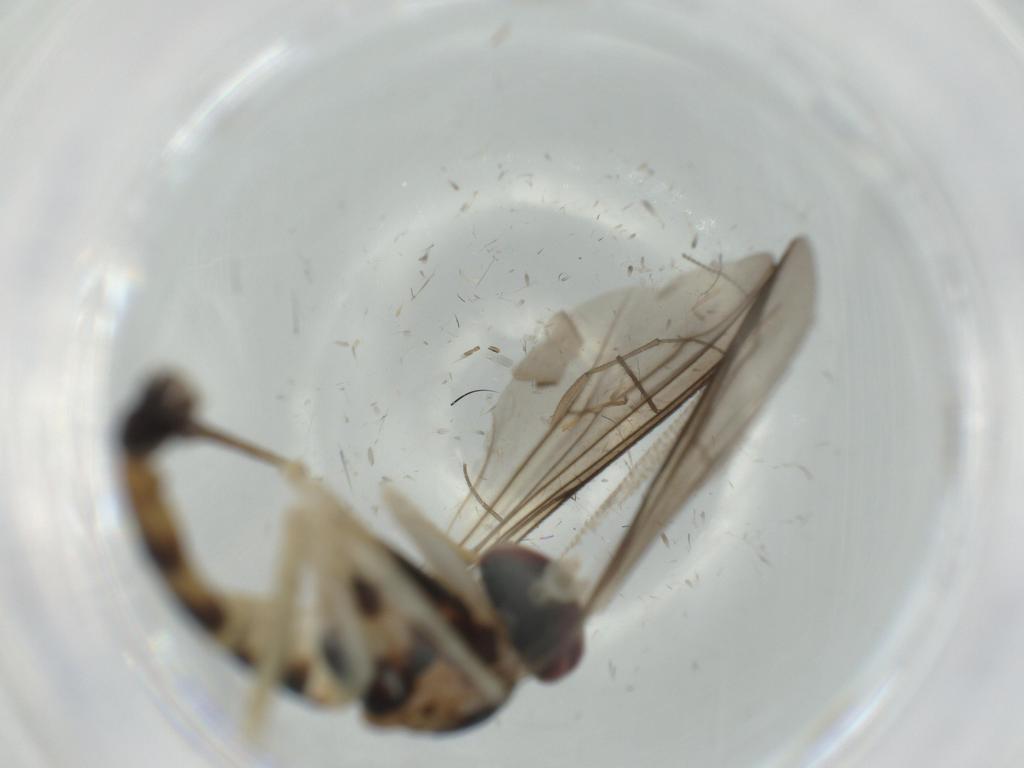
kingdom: Animalia
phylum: Arthropoda
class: Insecta
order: Diptera
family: Phoridae
